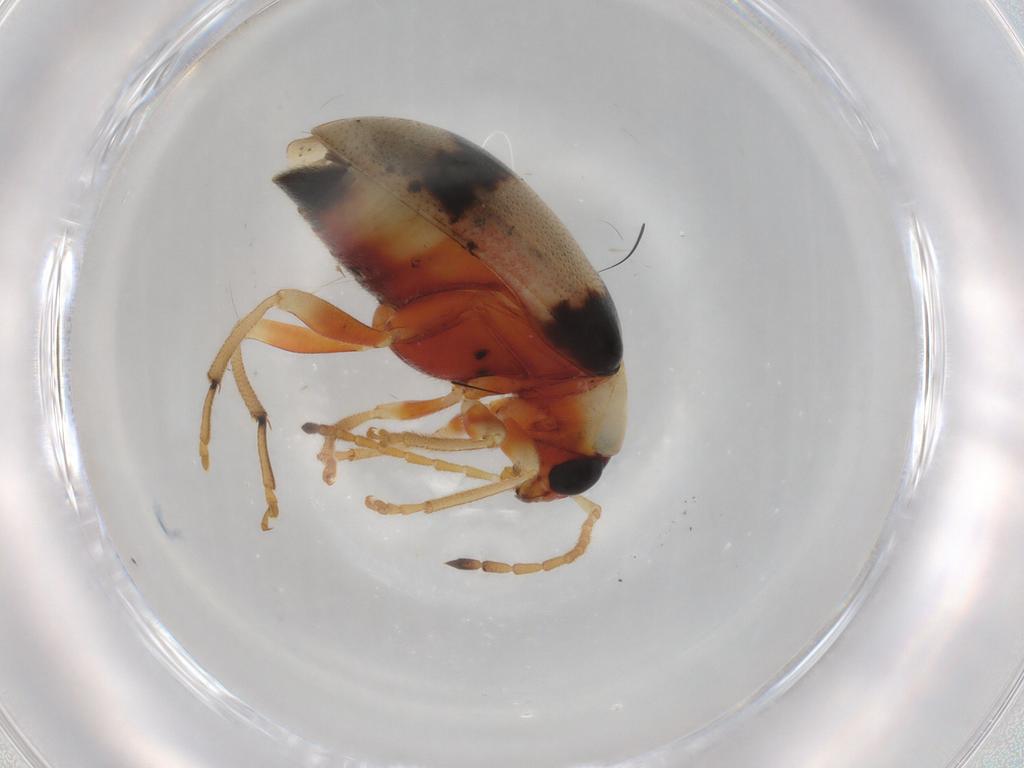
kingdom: Animalia
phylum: Arthropoda
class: Insecta
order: Coleoptera
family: Chrysomelidae
